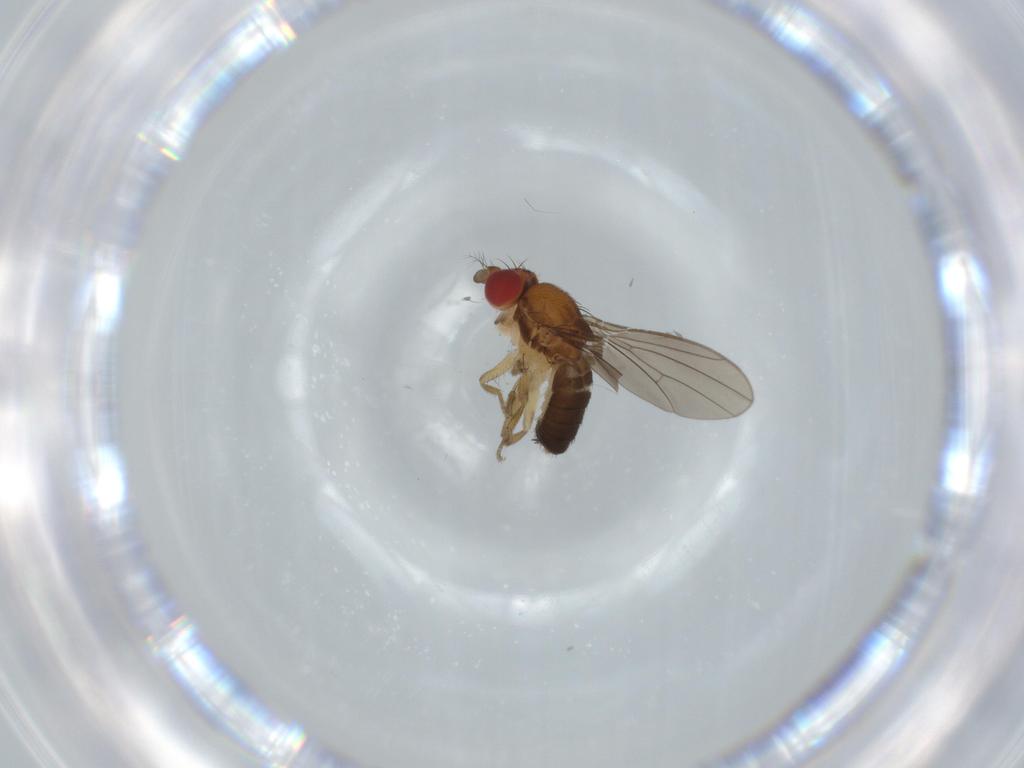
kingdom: Animalia
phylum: Arthropoda
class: Insecta
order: Diptera
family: Drosophilidae
